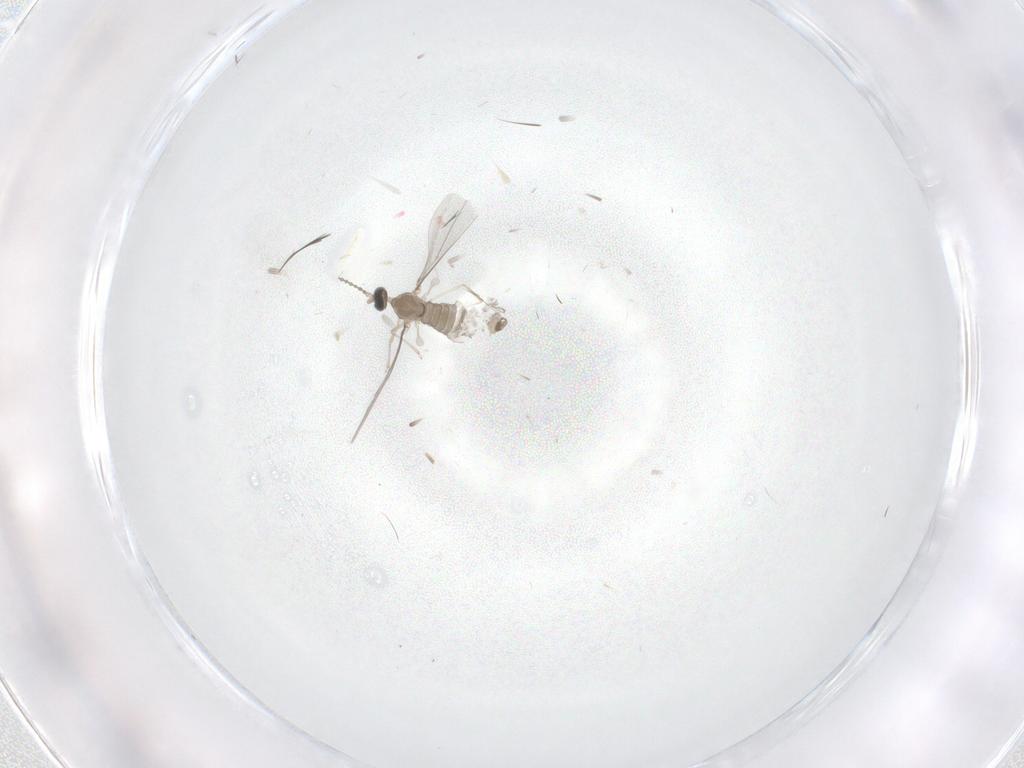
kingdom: Animalia
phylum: Arthropoda
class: Insecta
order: Diptera
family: Cecidomyiidae
